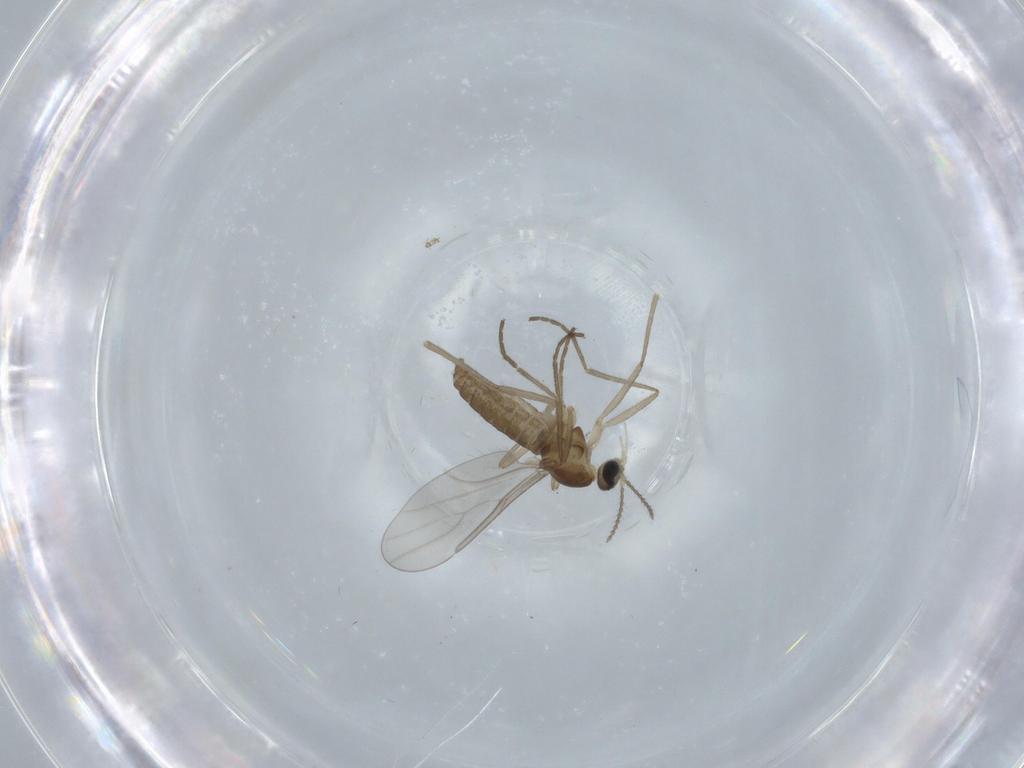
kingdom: Animalia
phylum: Arthropoda
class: Insecta
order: Diptera
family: Cecidomyiidae
